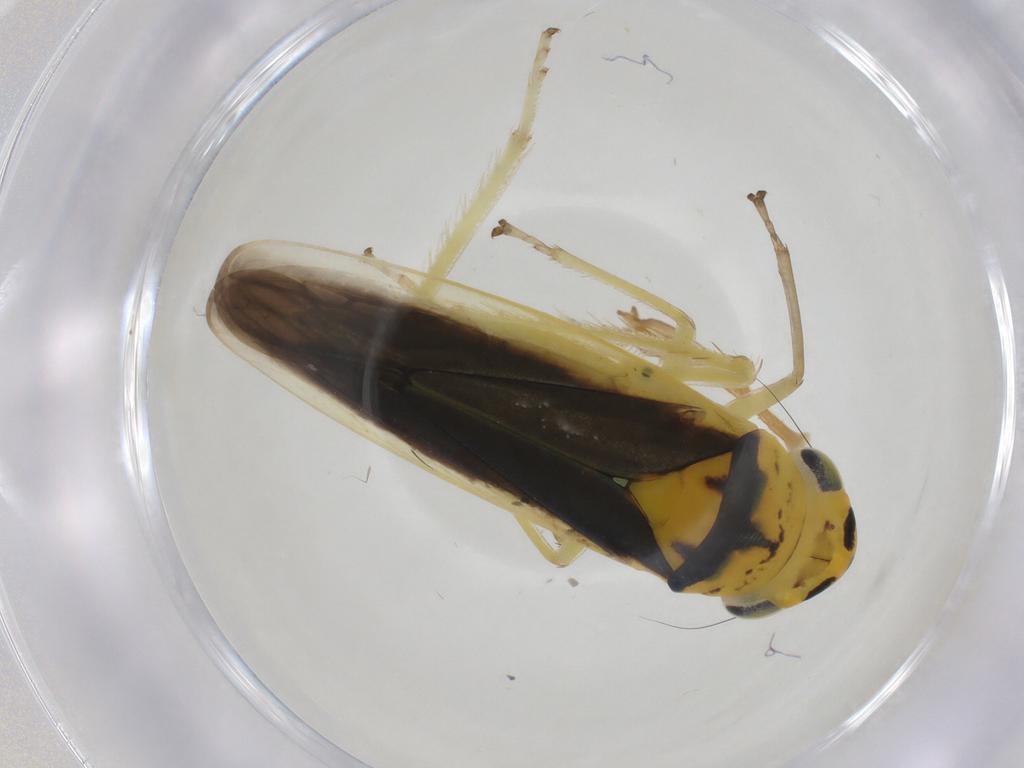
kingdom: Animalia
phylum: Arthropoda
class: Insecta
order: Hemiptera
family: Cicadellidae
